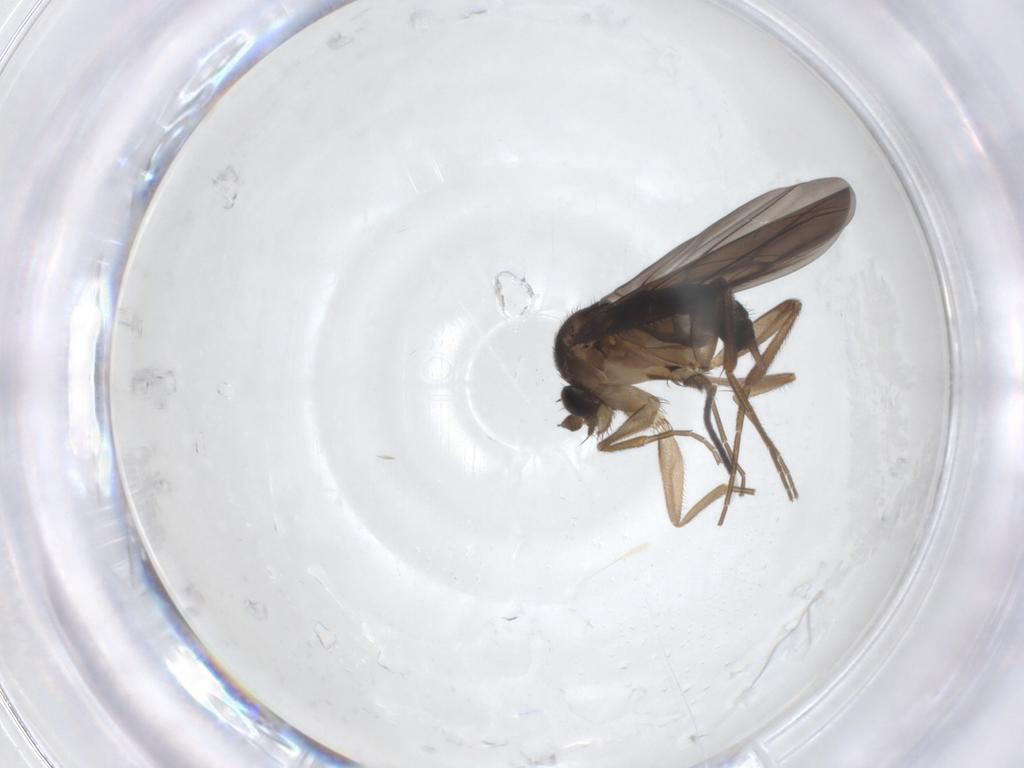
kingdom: Animalia
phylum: Arthropoda
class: Insecta
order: Diptera
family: Phoridae
